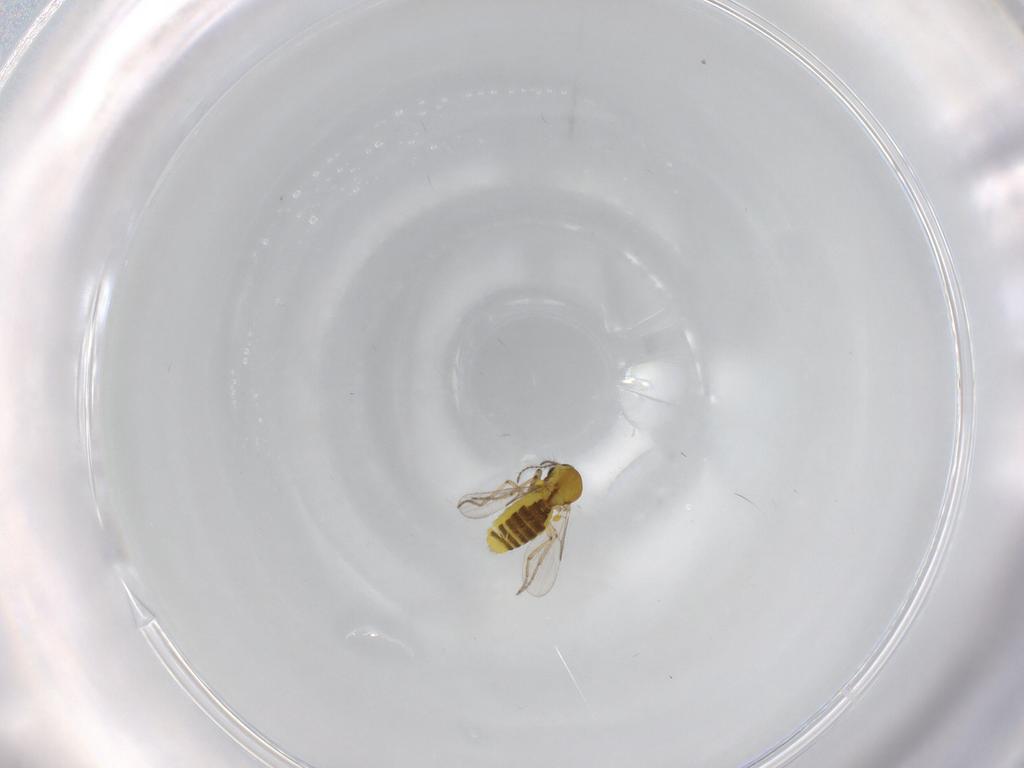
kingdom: Animalia
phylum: Arthropoda
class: Insecta
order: Diptera
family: Ceratopogonidae
